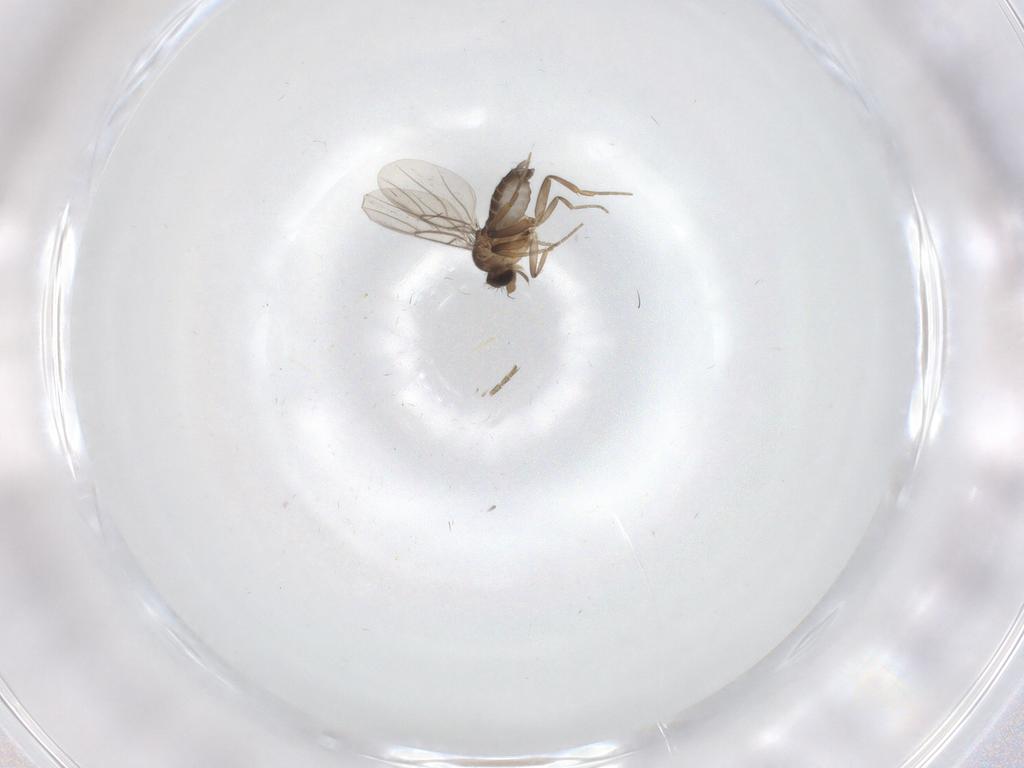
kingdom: Animalia
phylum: Arthropoda
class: Insecta
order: Diptera
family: Cecidomyiidae
